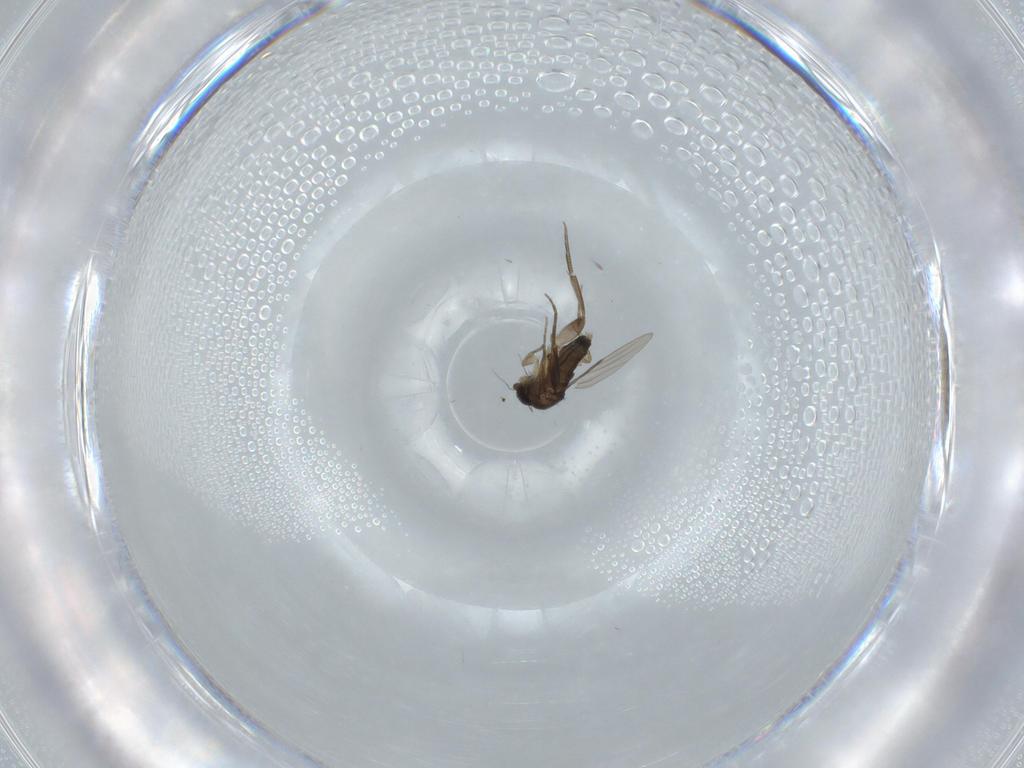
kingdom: Animalia
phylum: Arthropoda
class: Insecta
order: Diptera
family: Phoridae
